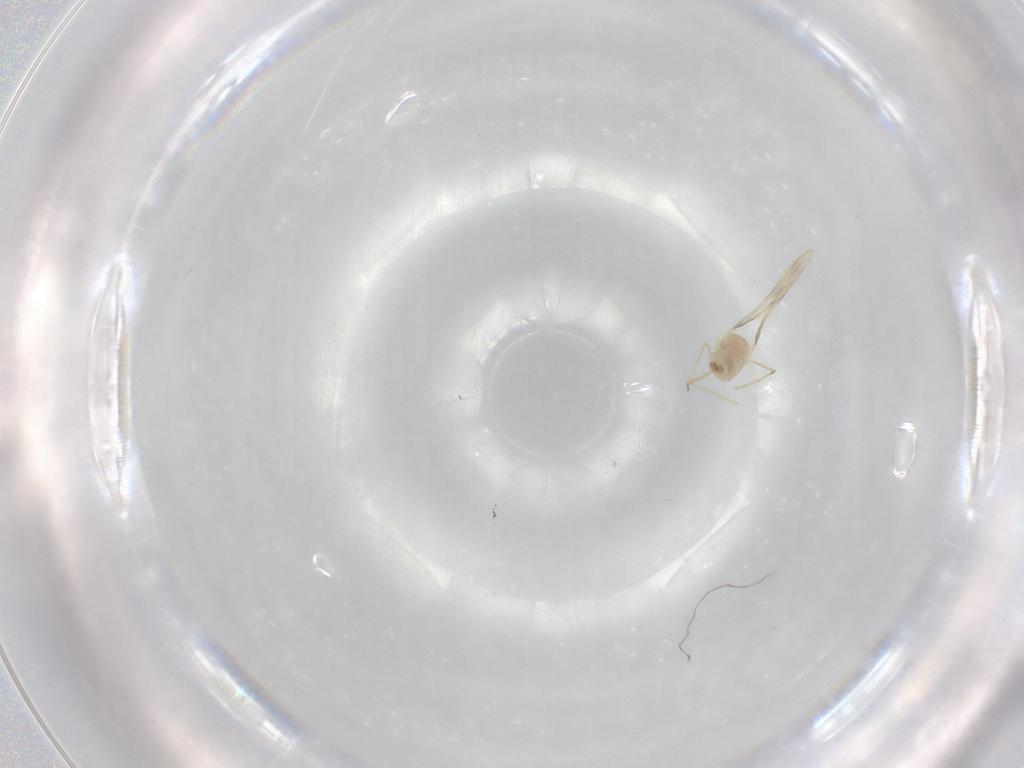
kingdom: Animalia
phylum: Arthropoda
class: Insecta
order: Diptera
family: Cecidomyiidae
